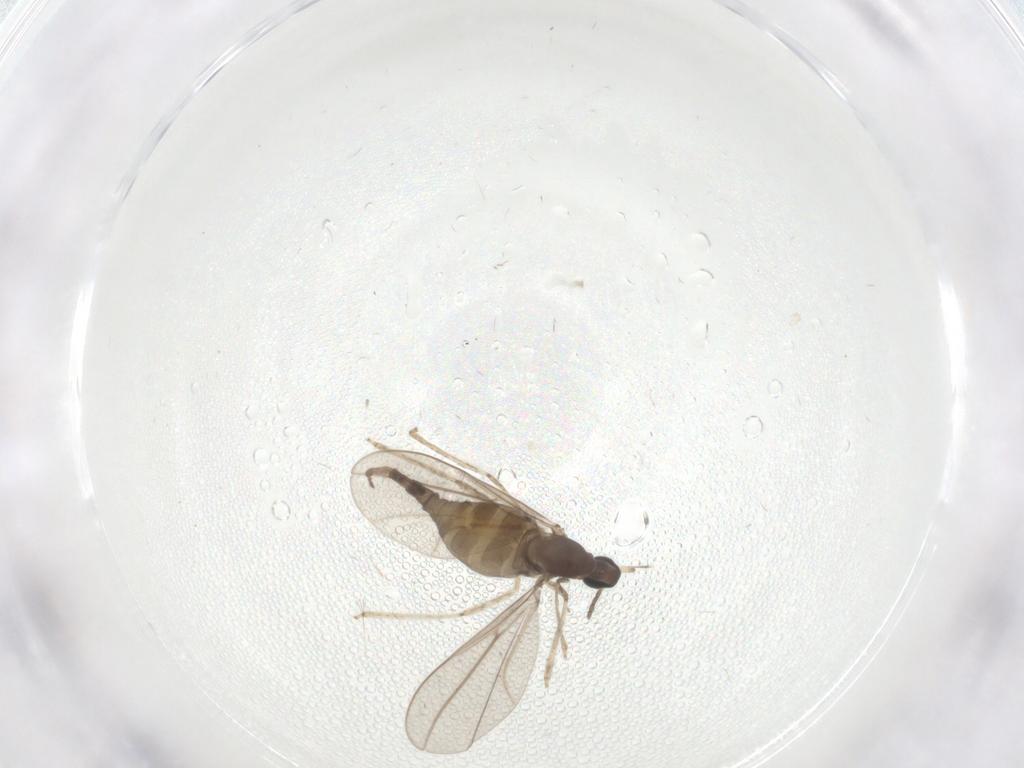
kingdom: Animalia
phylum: Arthropoda
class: Insecta
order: Diptera
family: Cecidomyiidae
